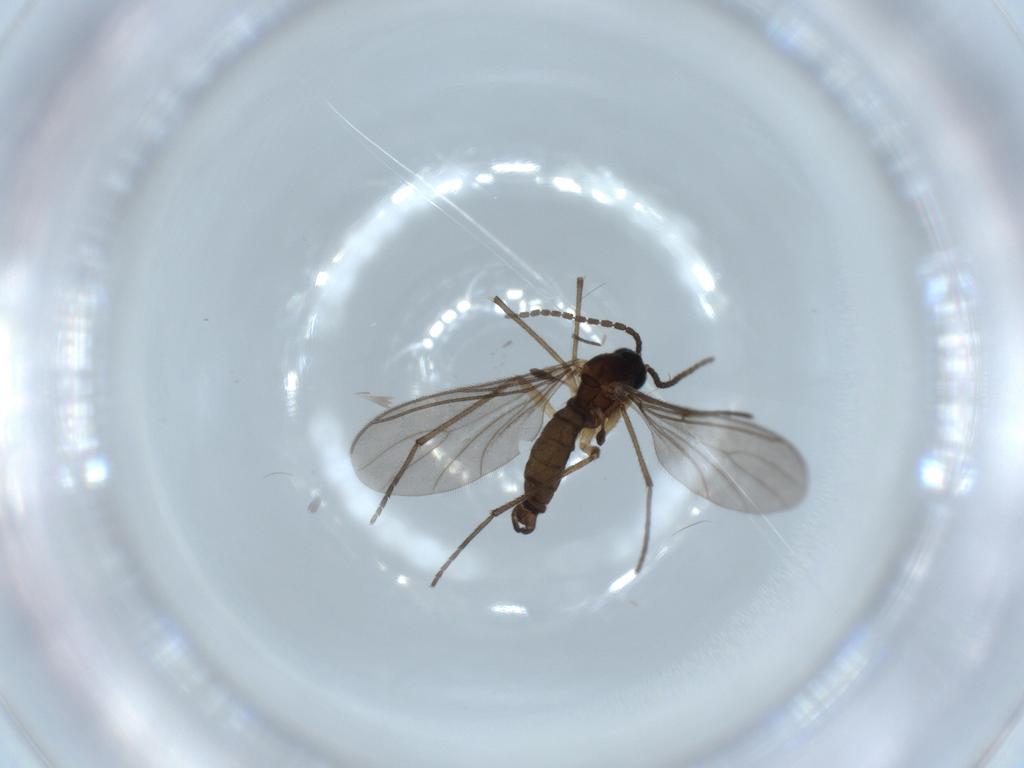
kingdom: Animalia
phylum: Arthropoda
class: Insecta
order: Diptera
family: Sciaridae
